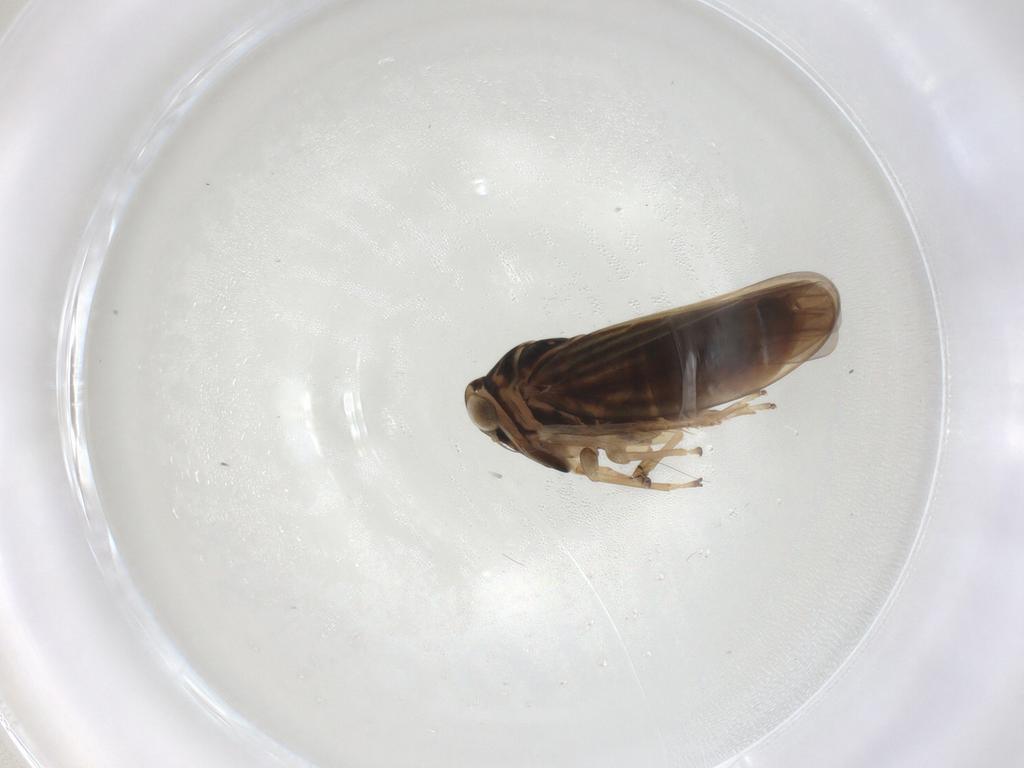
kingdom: Animalia
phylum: Arthropoda
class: Insecta
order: Hemiptera
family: Cicadellidae
